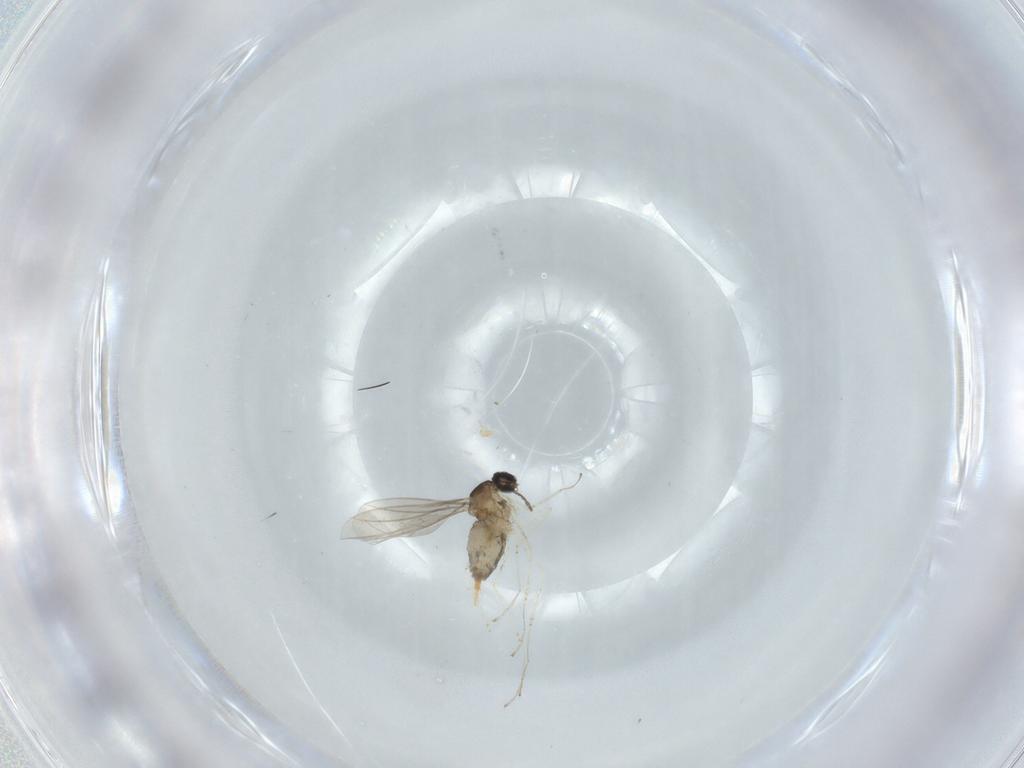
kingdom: Animalia
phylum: Arthropoda
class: Insecta
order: Diptera
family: Cecidomyiidae
